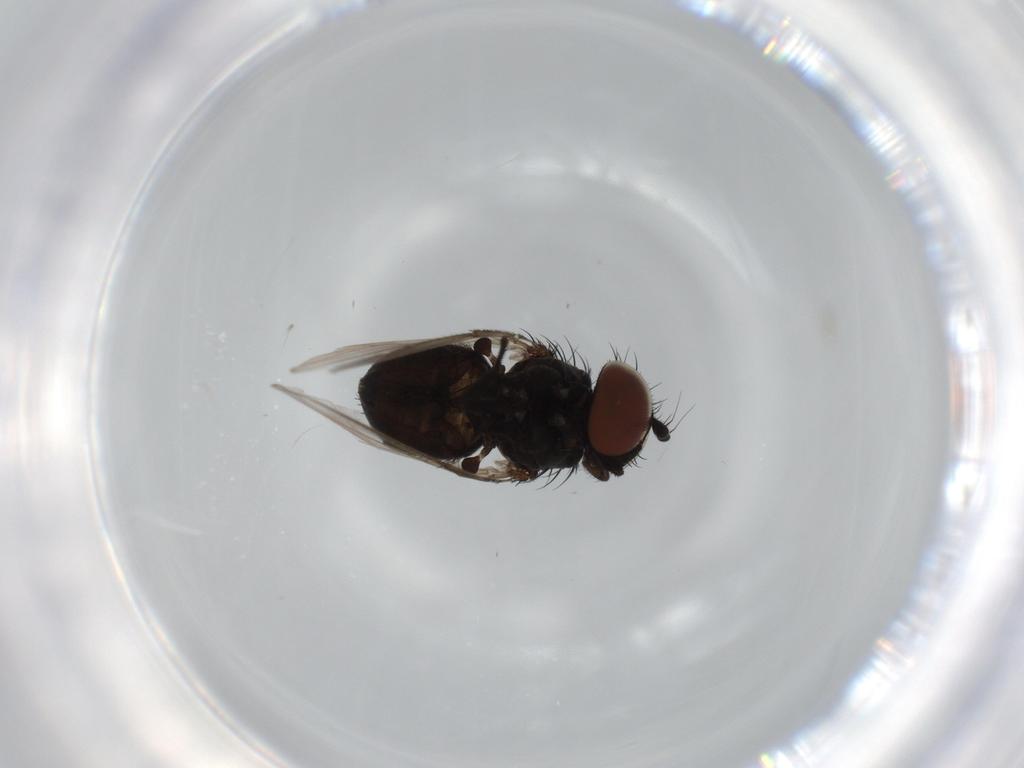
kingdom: Animalia
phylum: Arthropoda
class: Insecta
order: Diptera
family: Milichiidae
